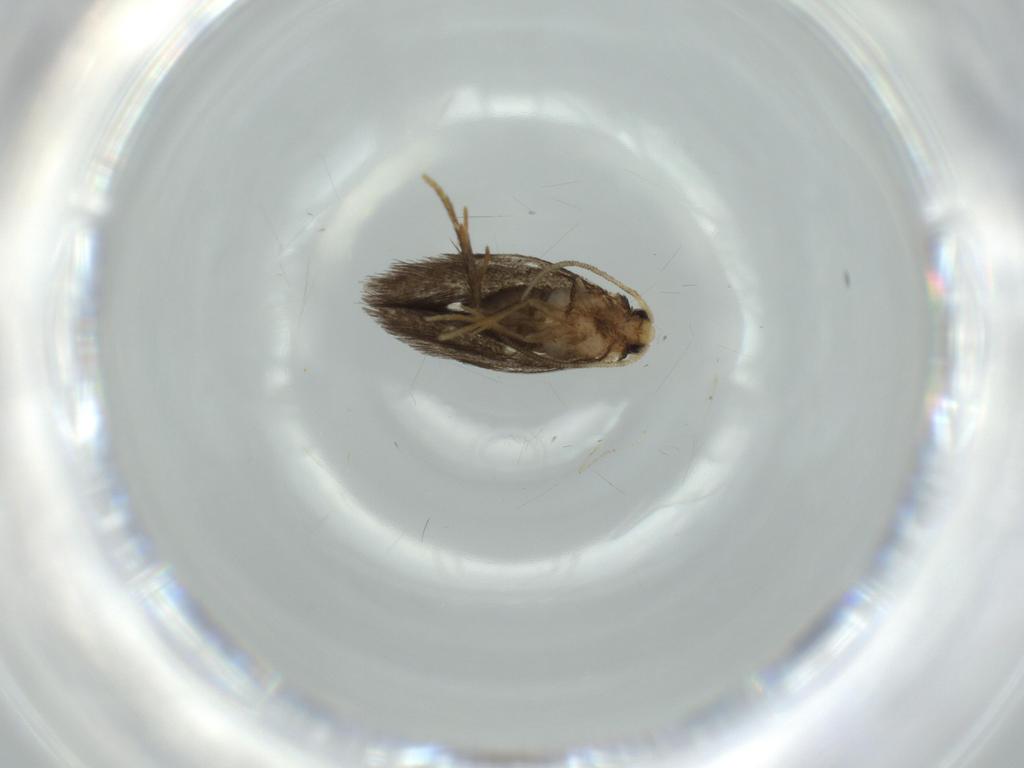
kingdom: Animalia
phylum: Arthropoda
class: Insecta
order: Lepidoptera
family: Nepticulidae
